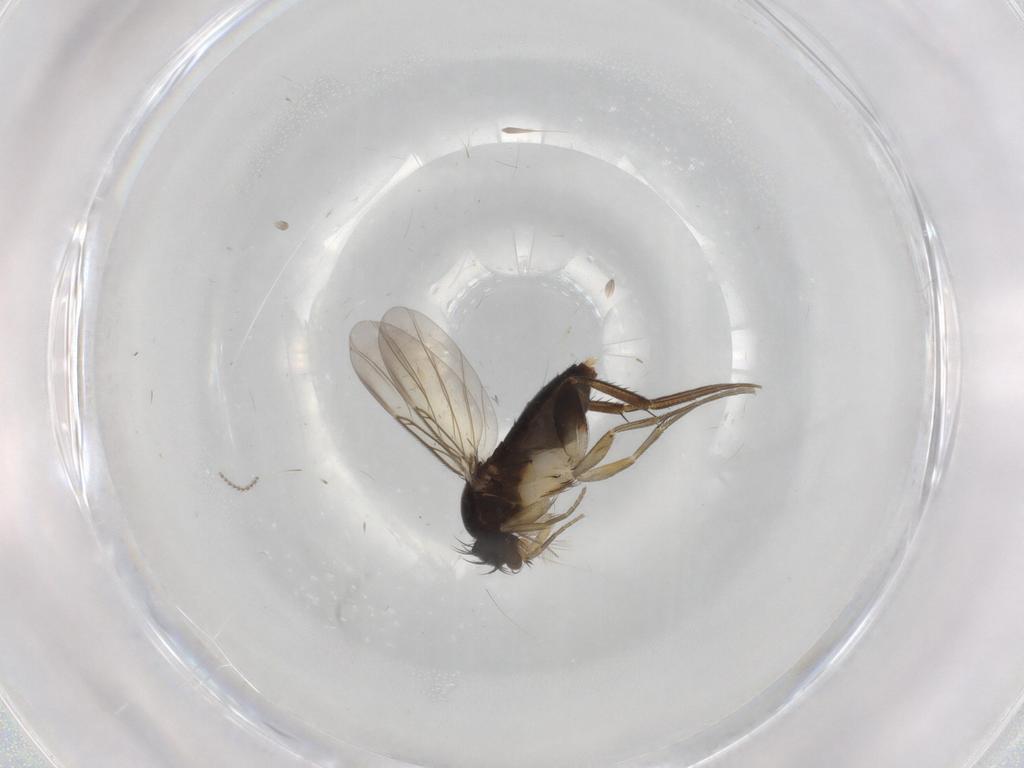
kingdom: Animalia
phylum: Arthropoda
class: Insecta
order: Diptera
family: Phoridae
